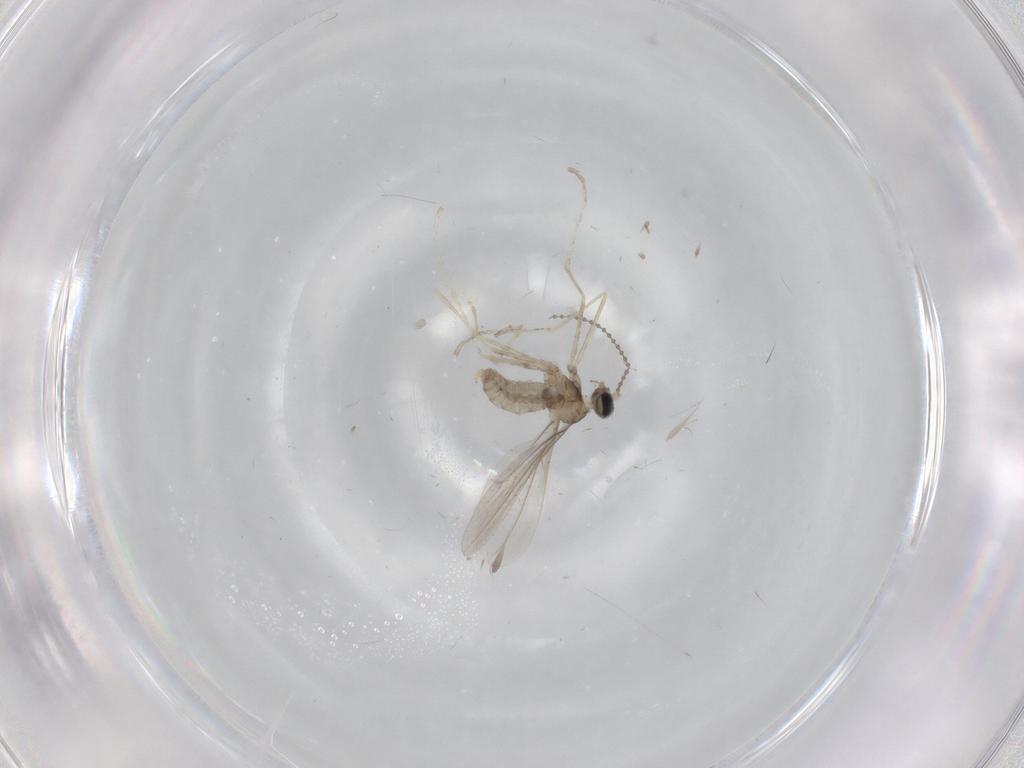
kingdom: Animalia
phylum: Arthropoda
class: Insecta
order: Diptera
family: Cecidomyiidae
